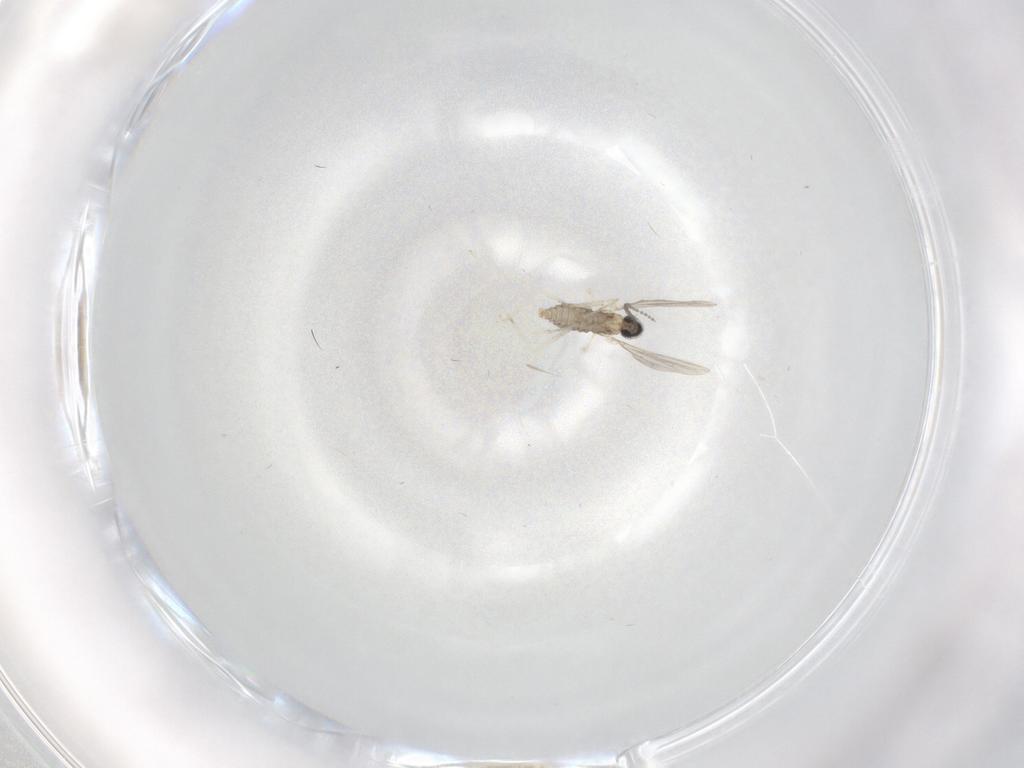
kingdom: Animalia
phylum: Arthropoda
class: Insecta
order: Diptera
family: Cecidomyiidae
